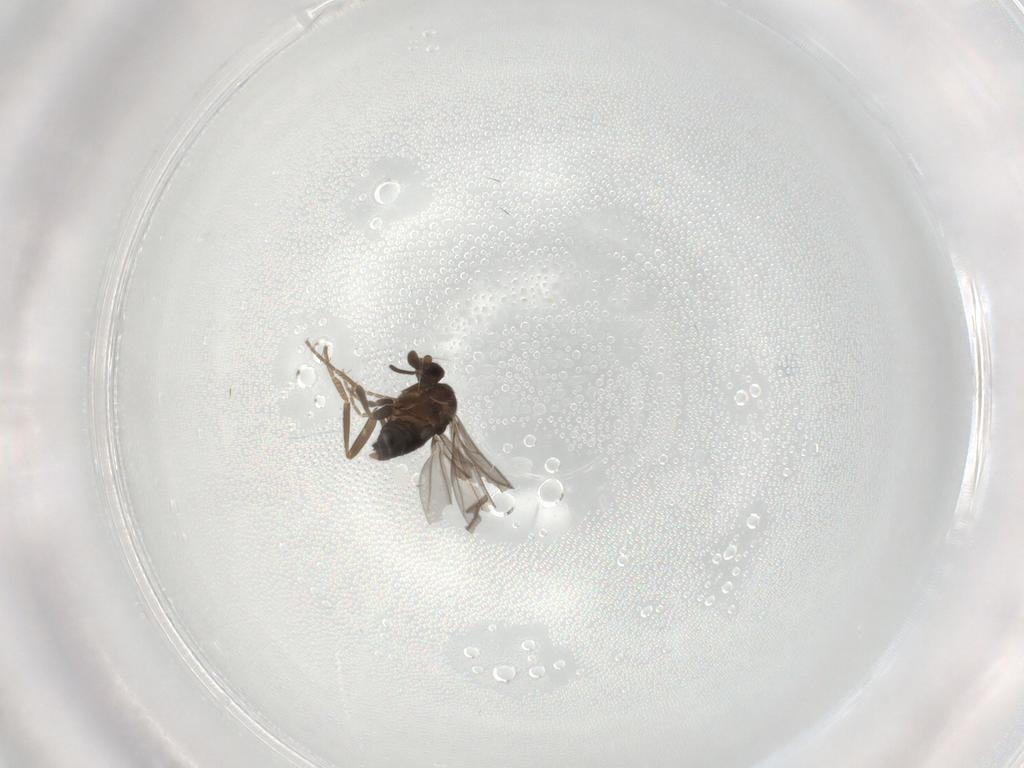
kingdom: Animalia
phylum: Arthropoda
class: Insecta
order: Diptera
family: Phoridae
